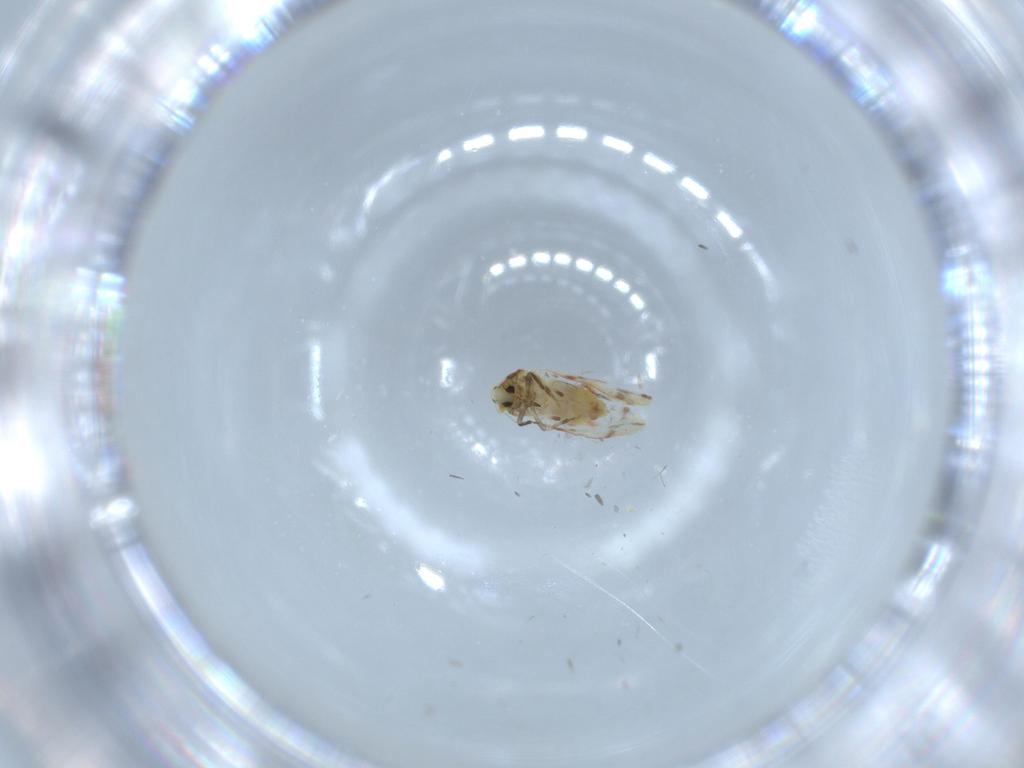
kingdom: Animalia
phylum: Arthropoda
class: Insecta
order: Hemiptera
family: Aleyrodidae
